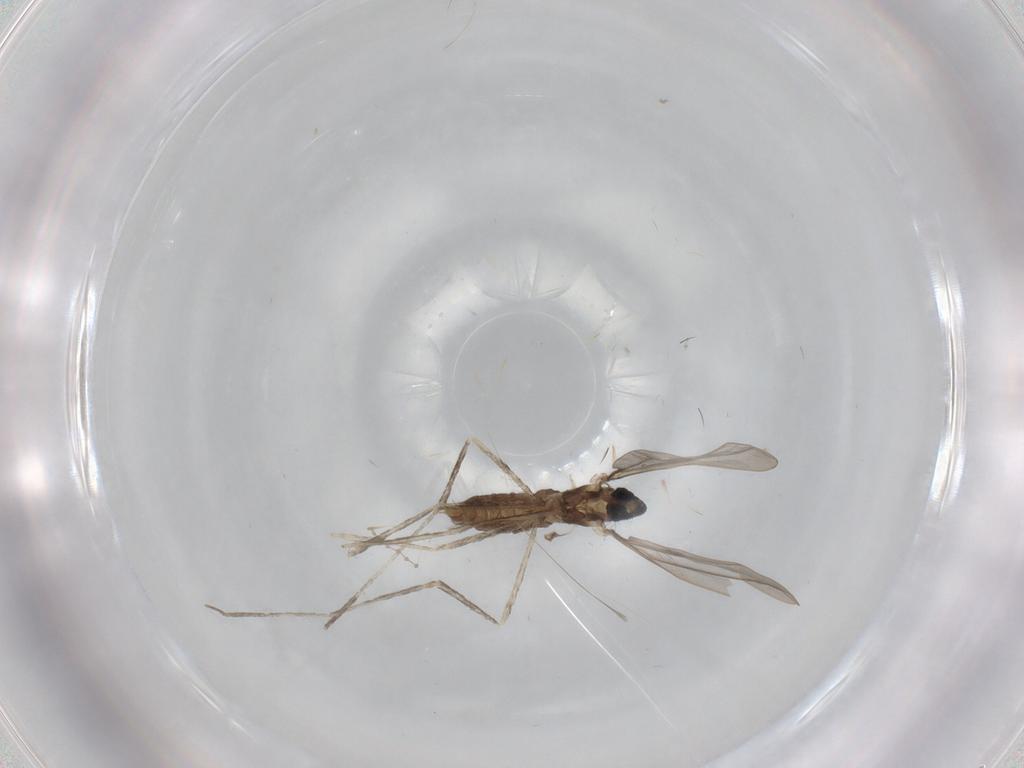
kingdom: Animalia
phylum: Arthropoda
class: Insecta
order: Diptera
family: Cecidomyiidae
